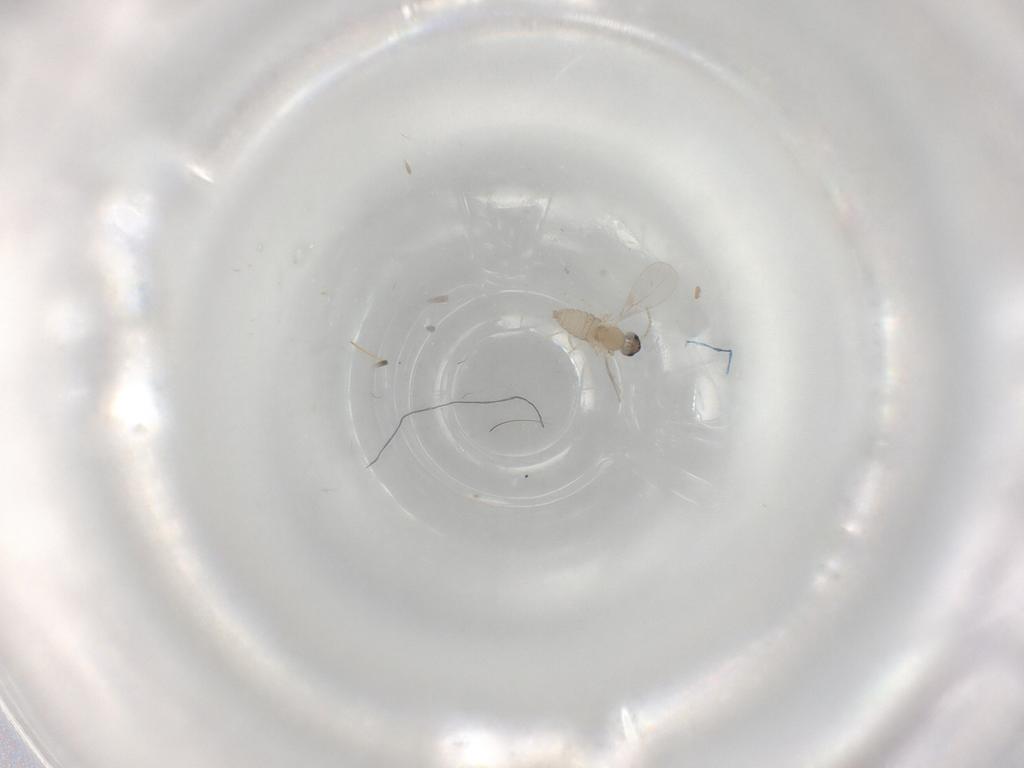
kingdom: Animalia
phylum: Arthropoda
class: Insecta
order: Diptera
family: Cecidomyiidae
